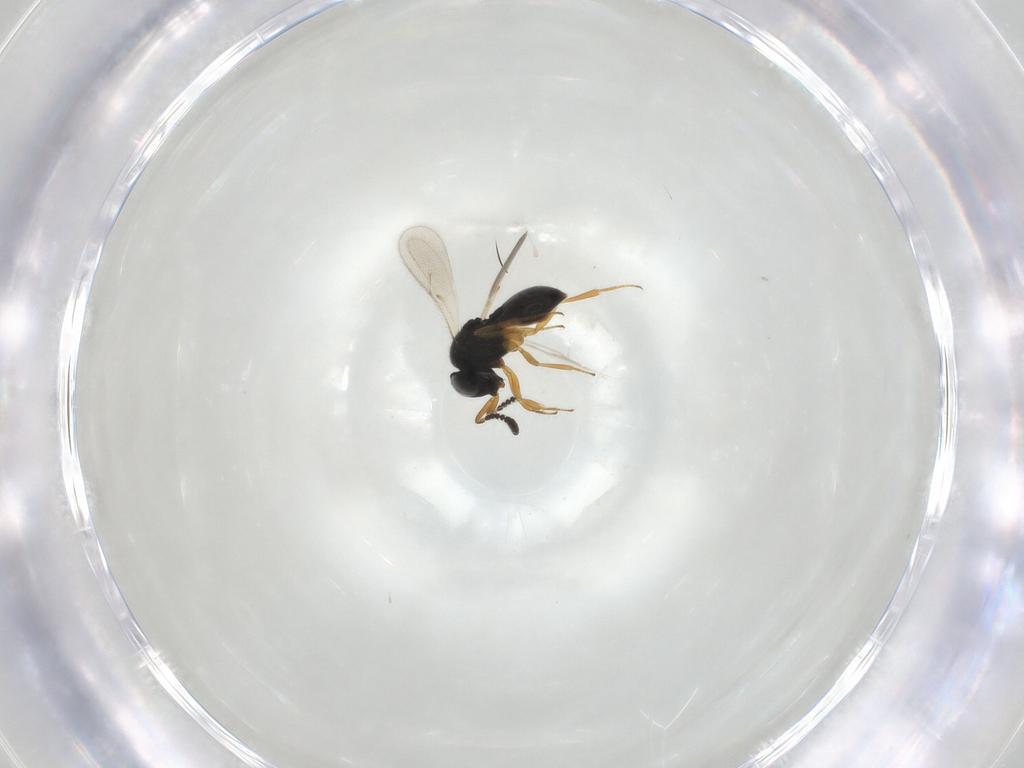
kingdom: Animalia
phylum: Arthropoda
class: Insecta
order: Hymenoptera
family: Scelionidae
